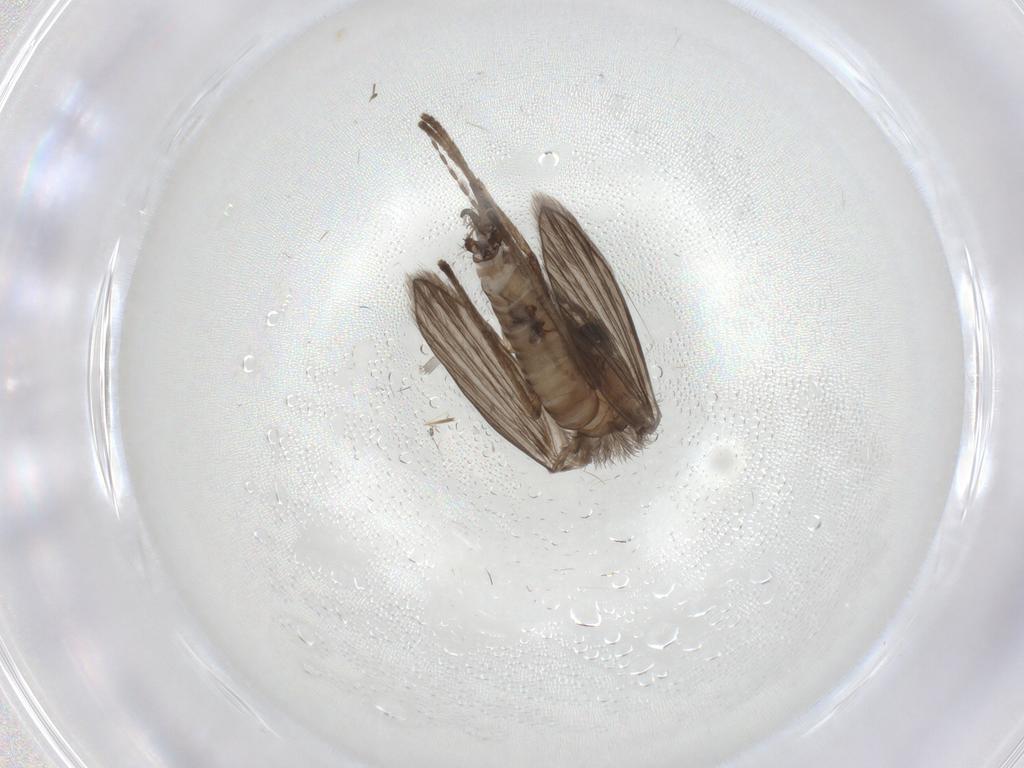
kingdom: Animalia
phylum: Arthropoda
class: Insecta
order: Diptera
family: Psychodidae
